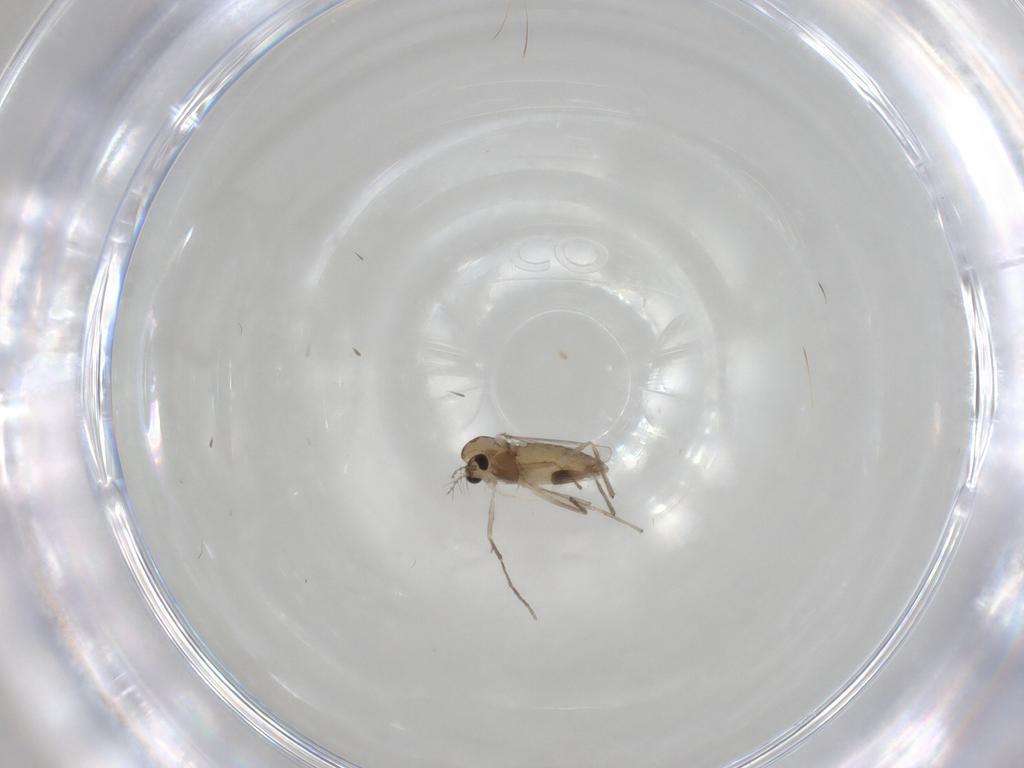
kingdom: Animalia
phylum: Arthropoda
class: Insecta
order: Diptera
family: Chironomidae
